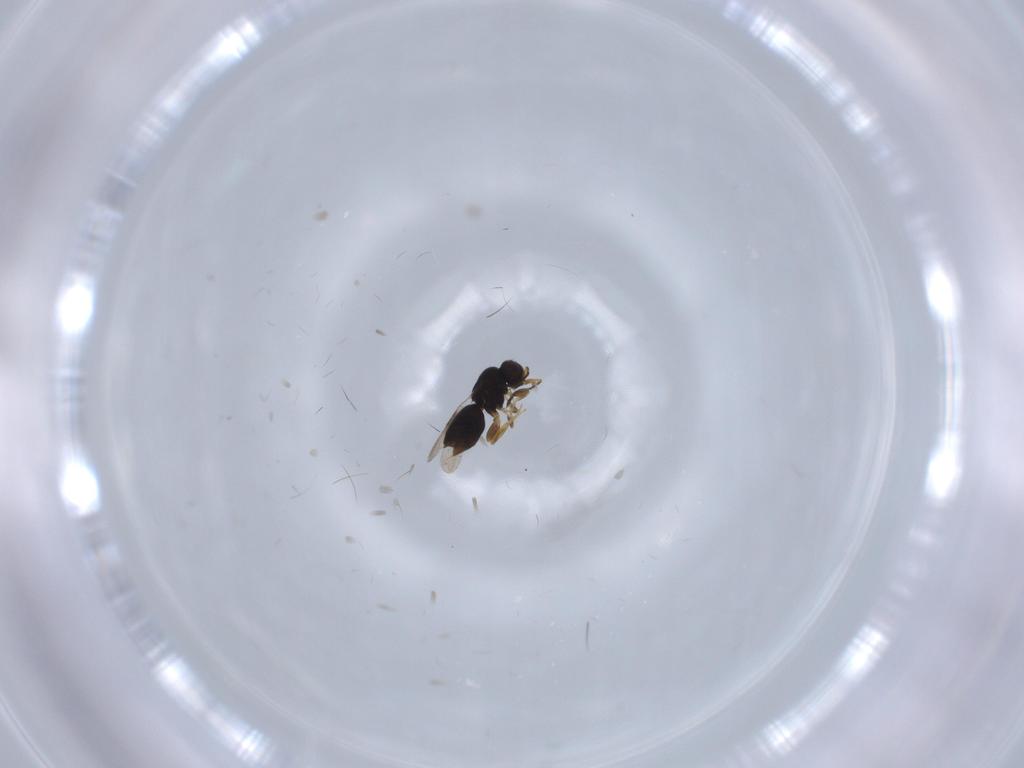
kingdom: Animalia
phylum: Arthropoda
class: Insecta
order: Hymenoptera
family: Ceraphronidae
